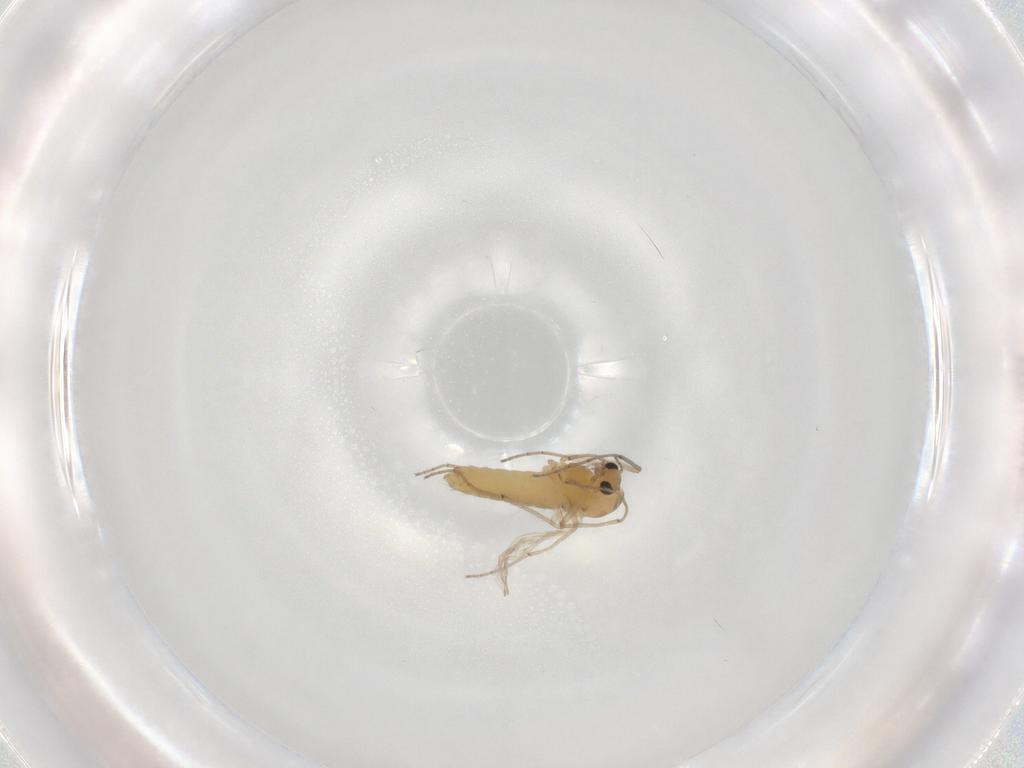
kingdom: Animalia
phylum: Arthropoda
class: Insecta
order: Diptera
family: Chironomidae
